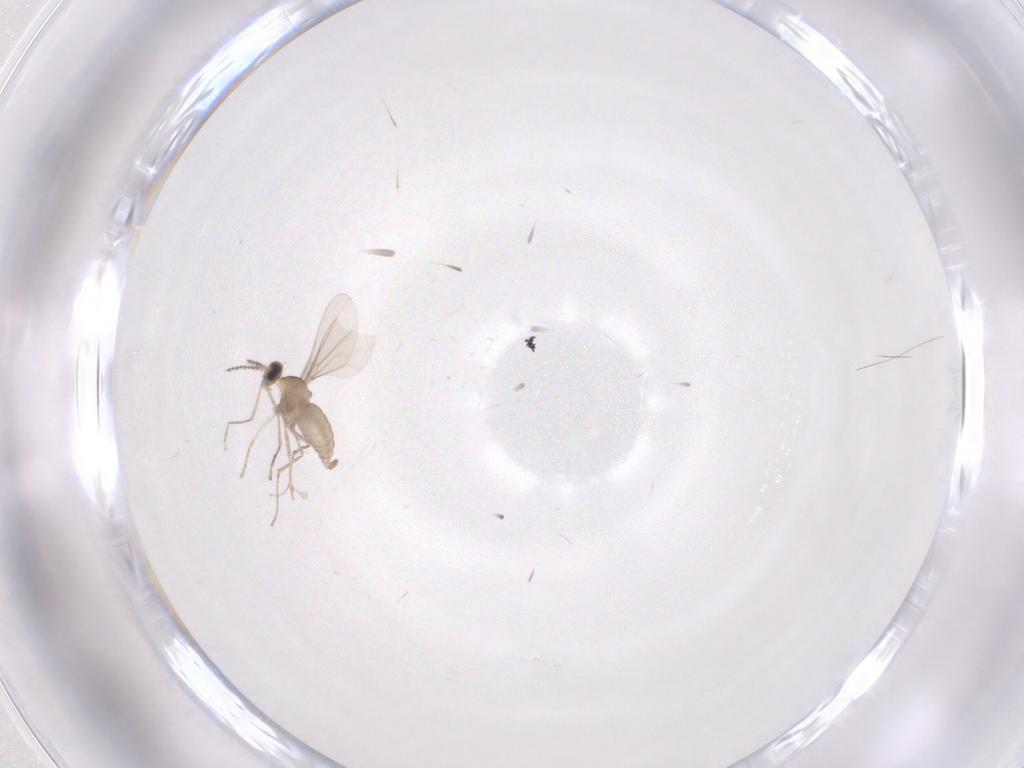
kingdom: Animalia
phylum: Arthropoda
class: Insecta
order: Diptera
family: Cecidomyiidae
